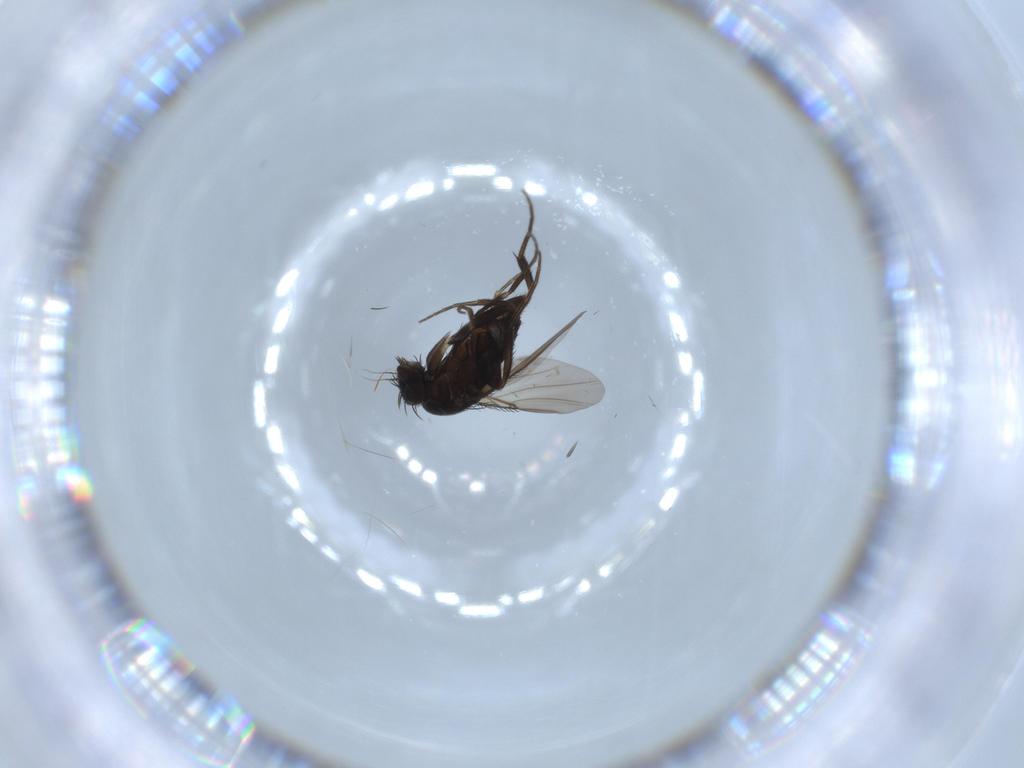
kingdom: Animalia
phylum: Arthropoda
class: Insecta
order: Diptera
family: Phoridae
